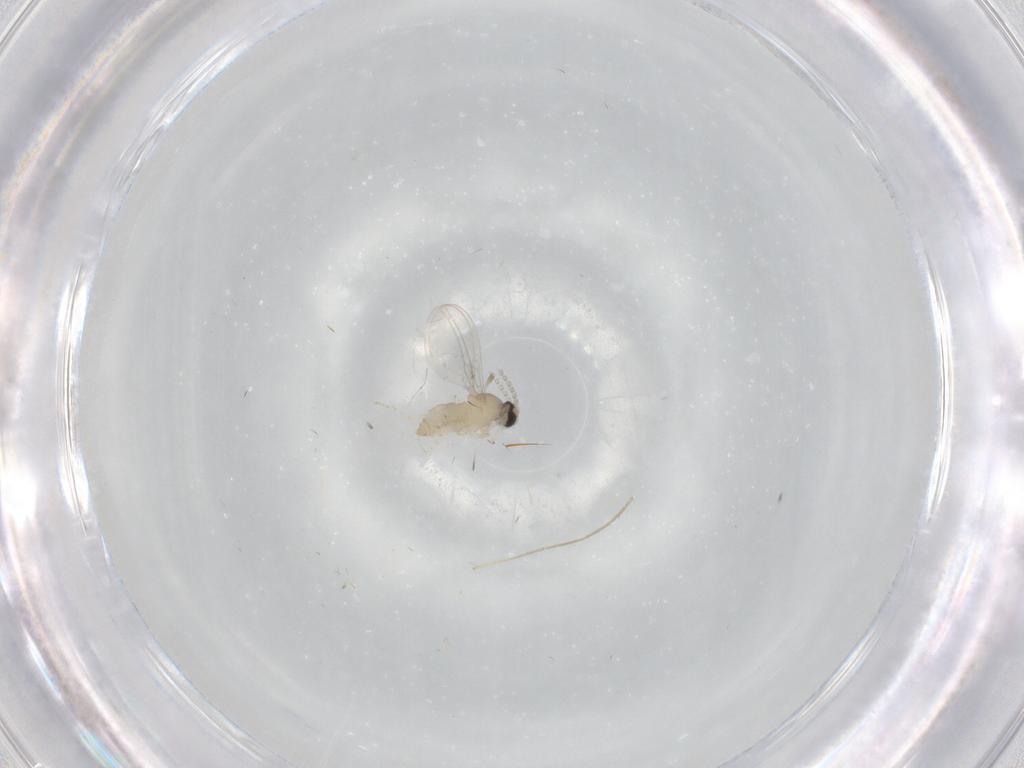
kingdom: Animalia
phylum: Arthropoda
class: Insecta
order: Diptera
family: Cecidomyiidae
